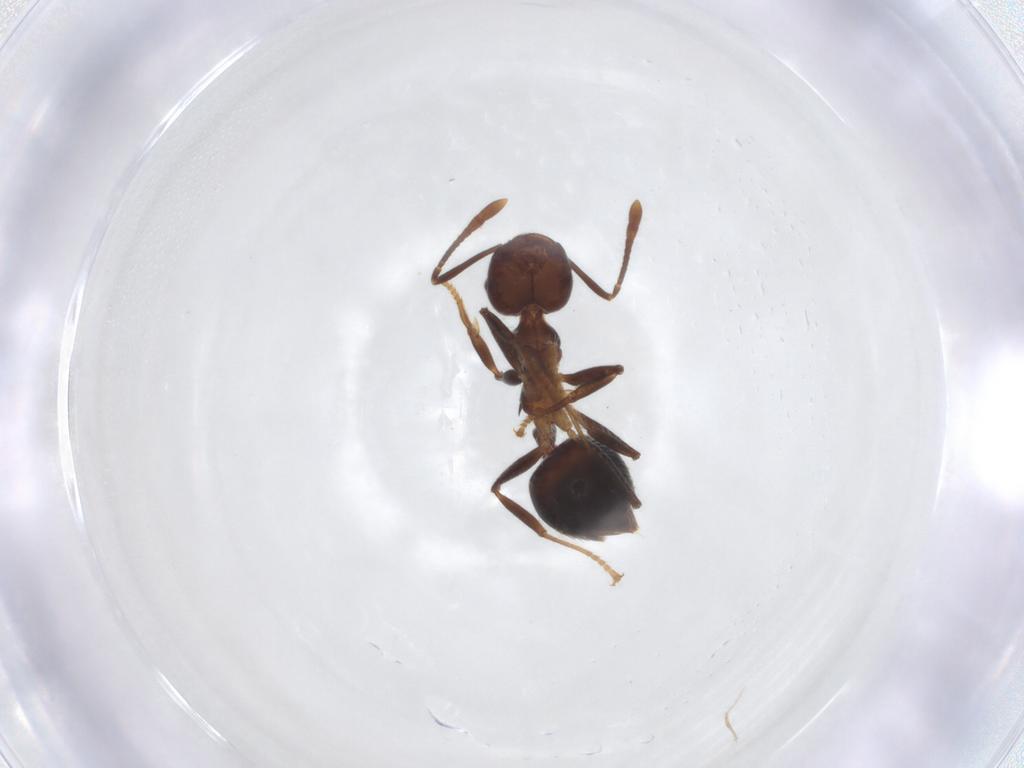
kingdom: Animalia
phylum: Arthropoda
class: Insecta
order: Hymenoptera
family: Formicidae
